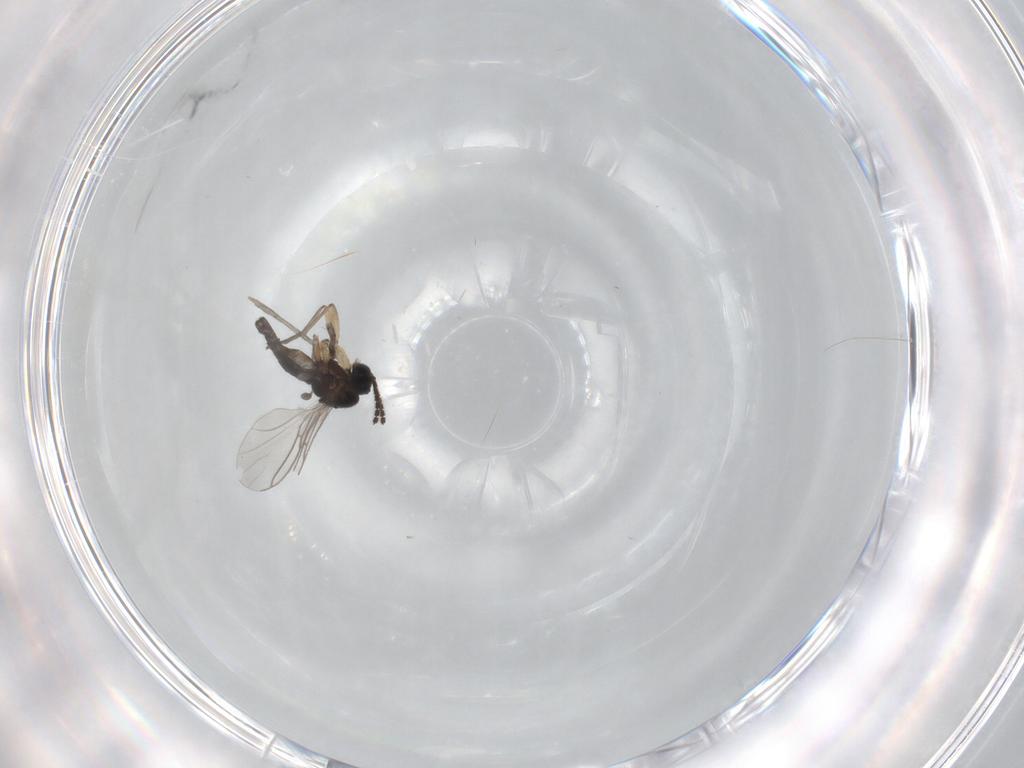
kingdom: Animalia
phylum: Arthropoda
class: Insecta
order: Diptera
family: Sciaridae
